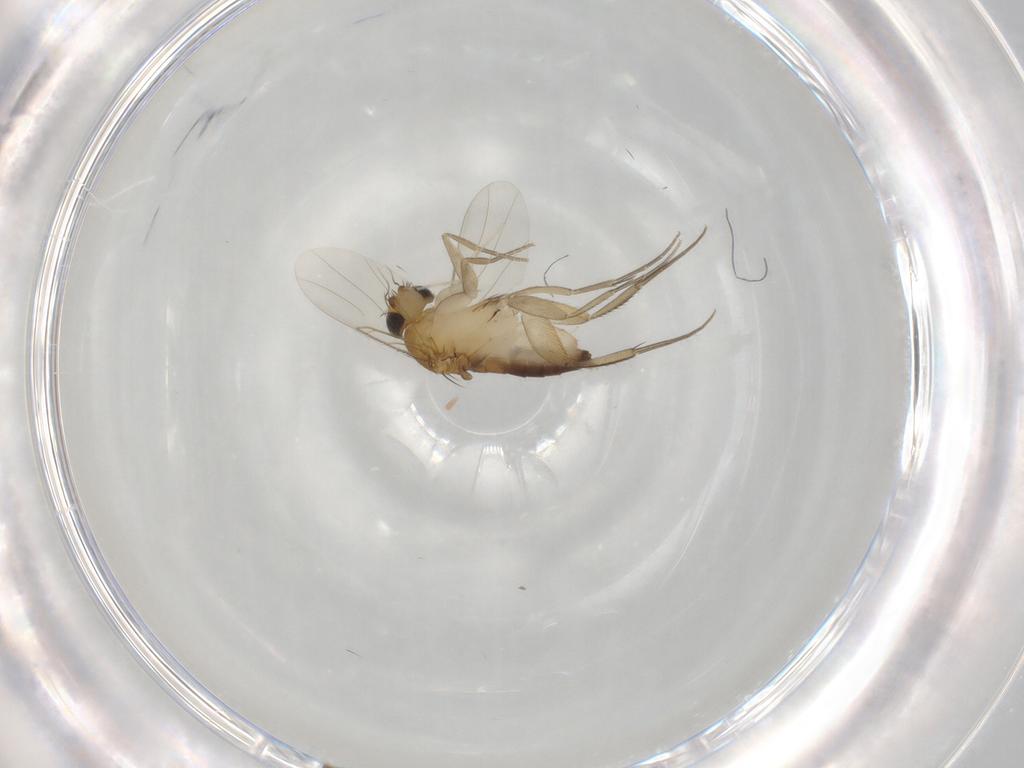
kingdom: Animalia
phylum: Arthropoda
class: Insecta
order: Diptera
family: Phoridae
